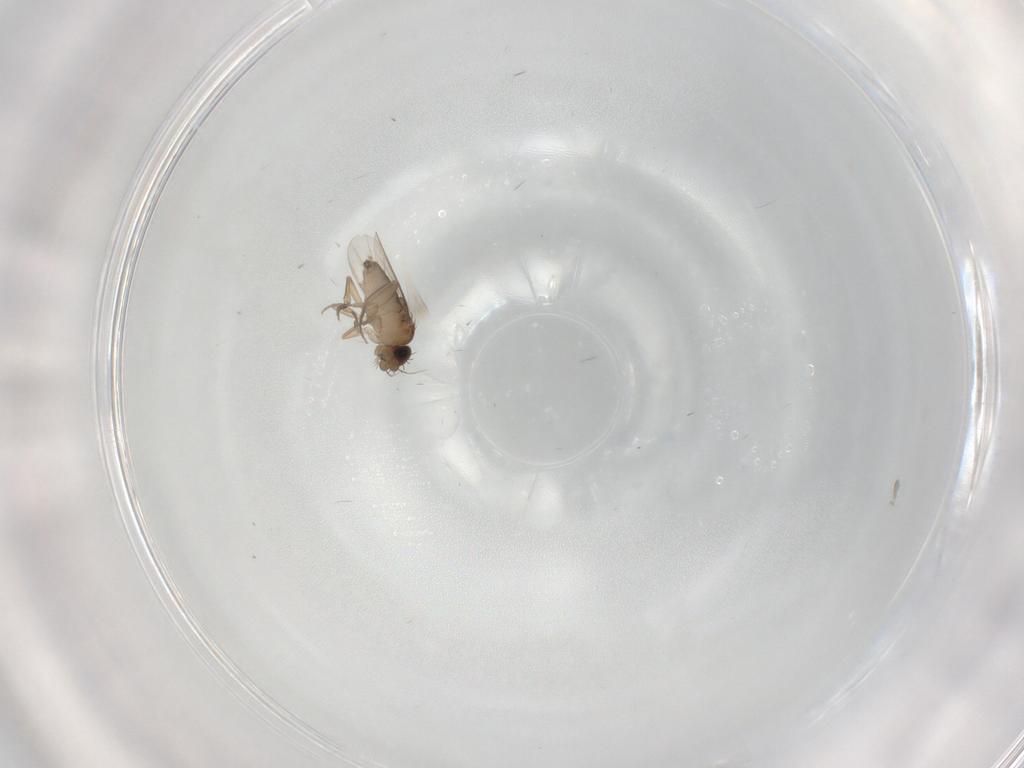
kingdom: Animalia
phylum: Arthropoda
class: Insecta
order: Diptera
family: Phoridae
